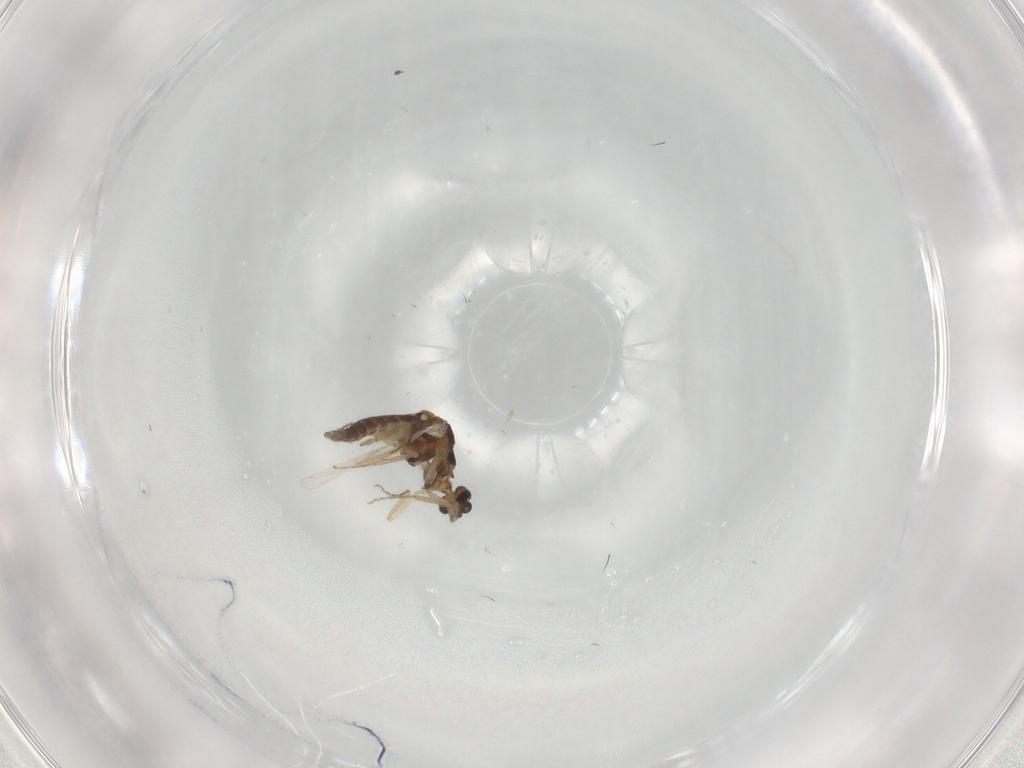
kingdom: Animalia
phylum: Arthropoda
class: Insecta
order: Diptera
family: Ceratopogonidae
